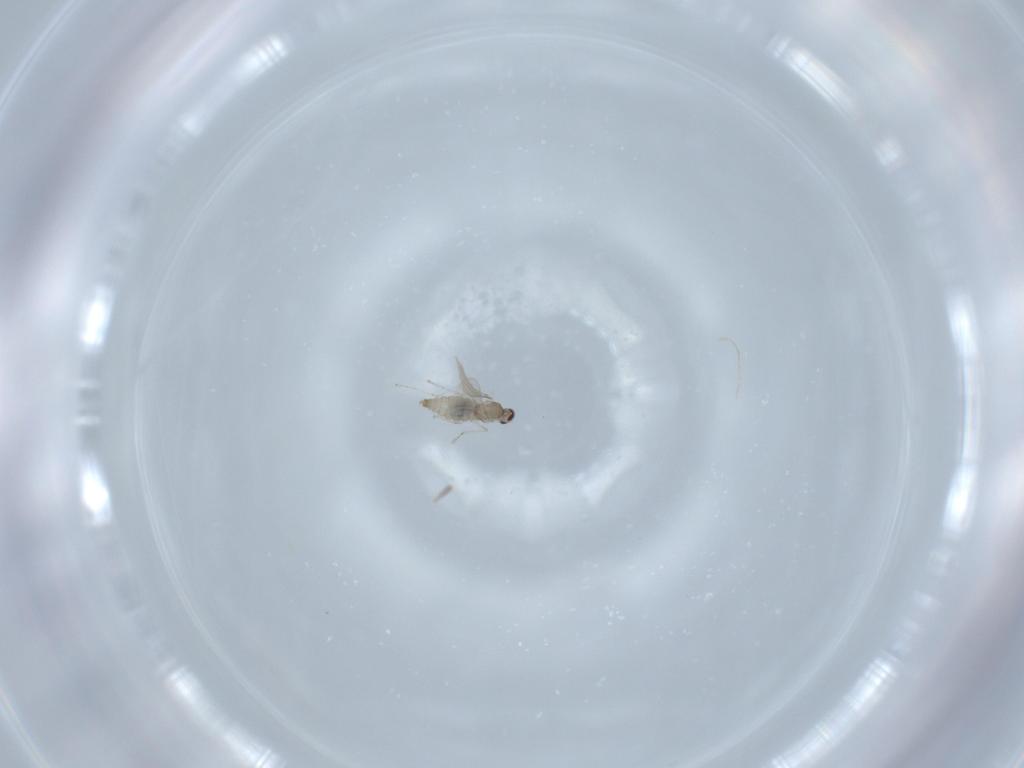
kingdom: Animalia
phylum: Arthropoda
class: Insecta
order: Diptera
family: Cecidomyiidae
